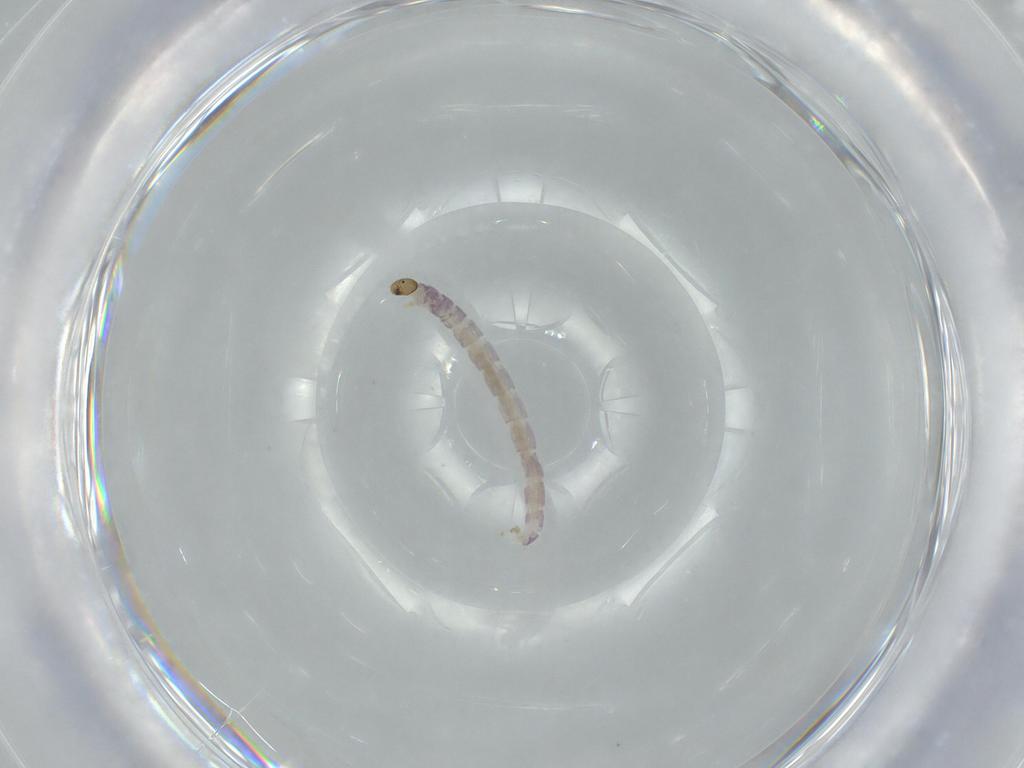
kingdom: Animalia
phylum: Arthropoda
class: Insecta
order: Diptera
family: Chironomidae
